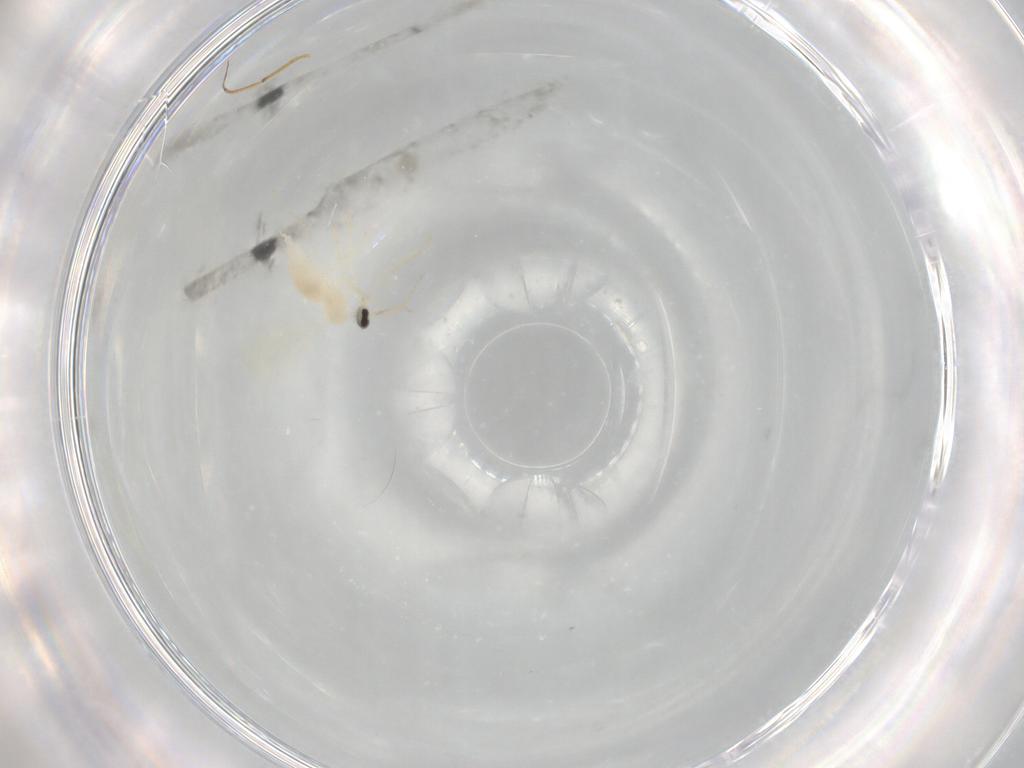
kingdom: Animalia
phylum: Arthropoda
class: Insecta
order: Diptera
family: Cecidomyiidae
